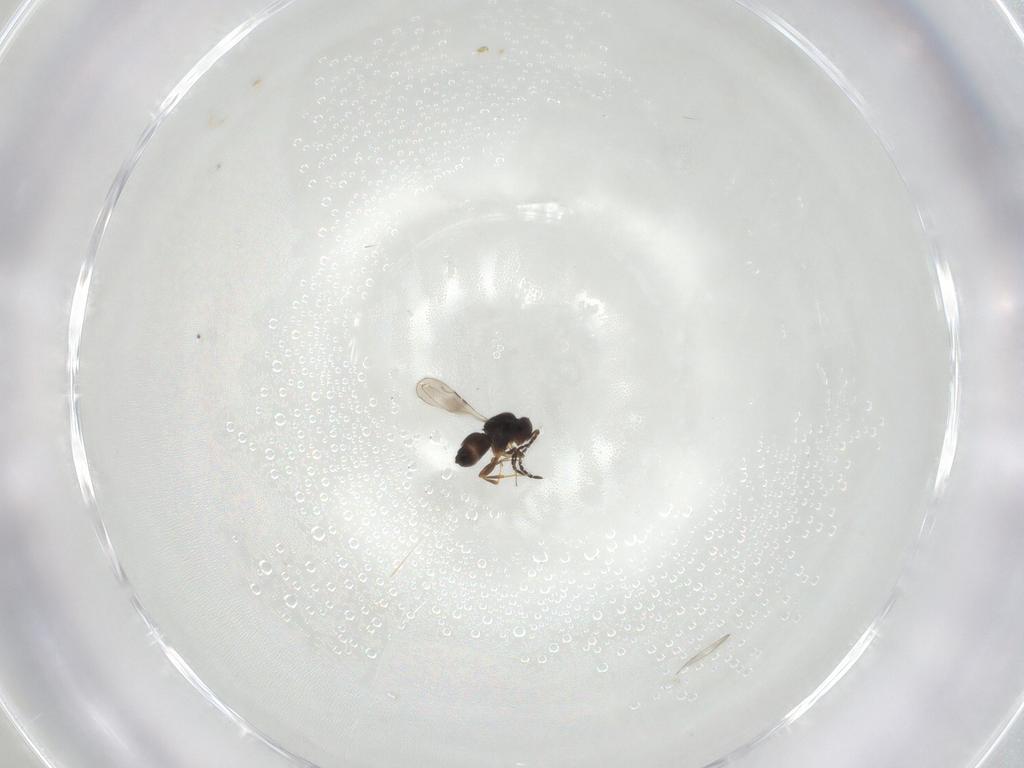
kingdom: Animalia
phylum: Arthropoda
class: Insecta
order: Hymenoptera
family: Ceraphronidae
